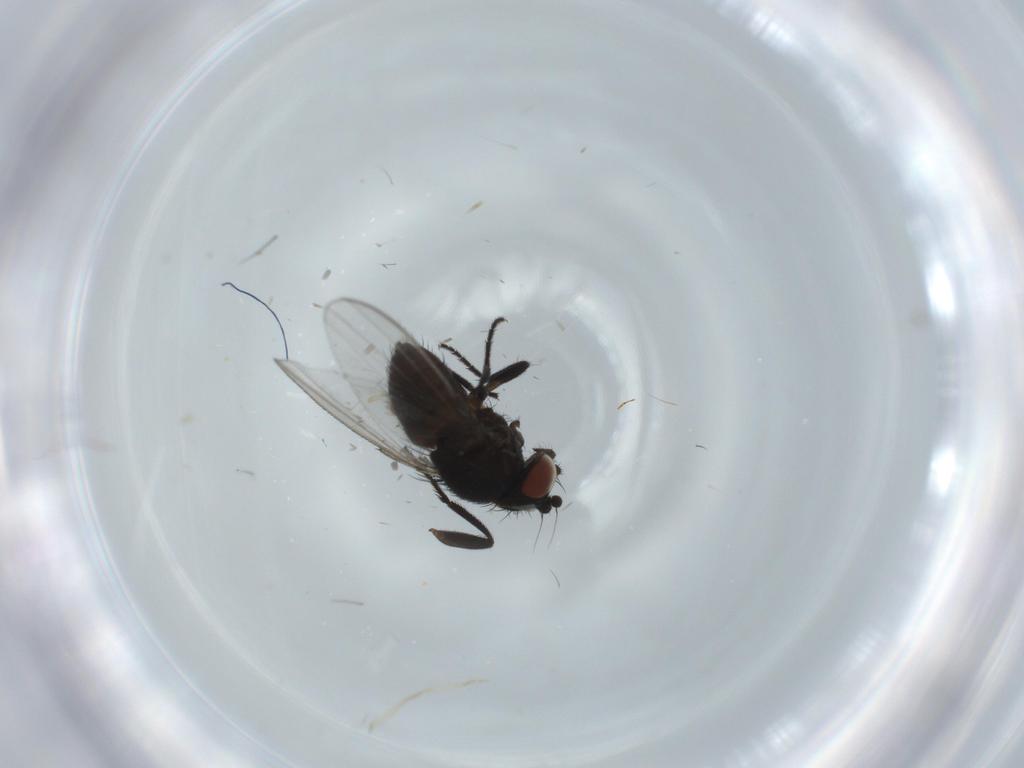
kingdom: Animalia
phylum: Arthropoda
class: Insecta
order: Diptera
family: Milichiidae
